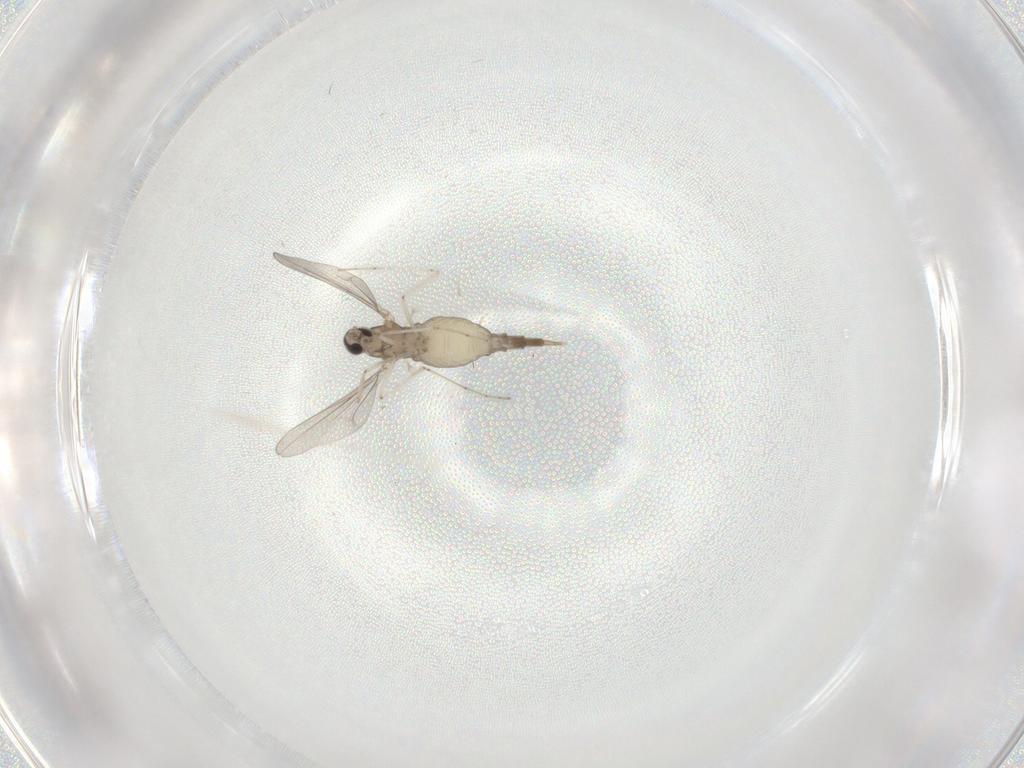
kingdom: Animalia
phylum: Arthropoda
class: Insecta
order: Diptera
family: Cecidomyiidae
